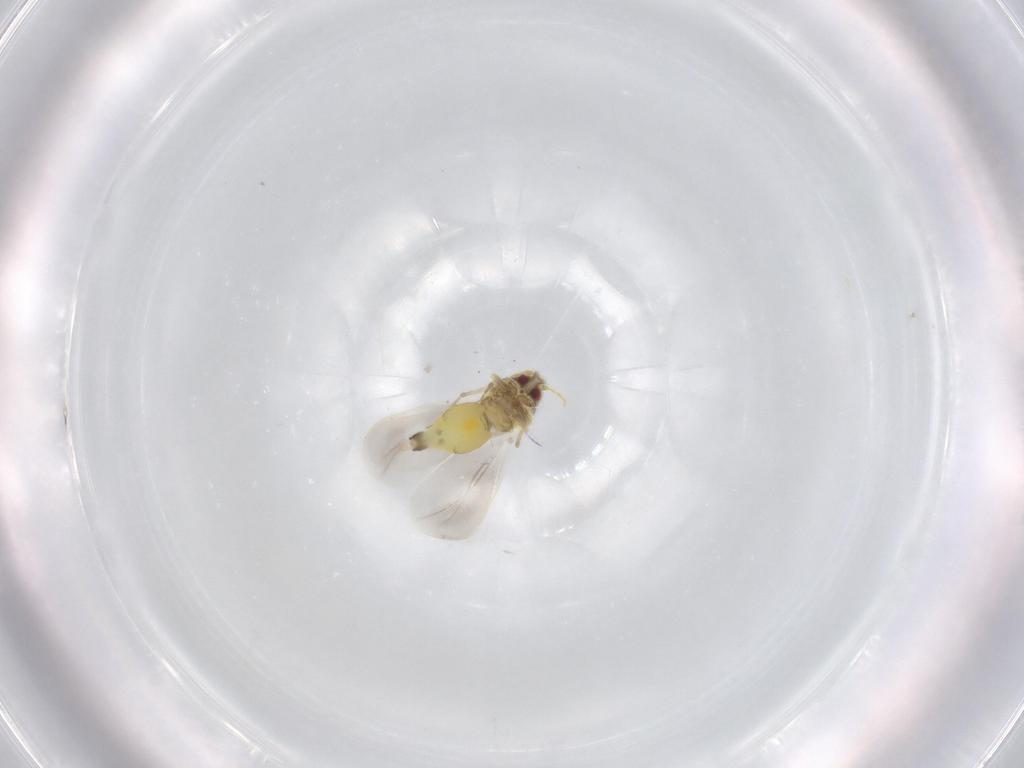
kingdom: Animalia
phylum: Arthropoda
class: Insecta
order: Hemiptera
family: Aleyrodidae
